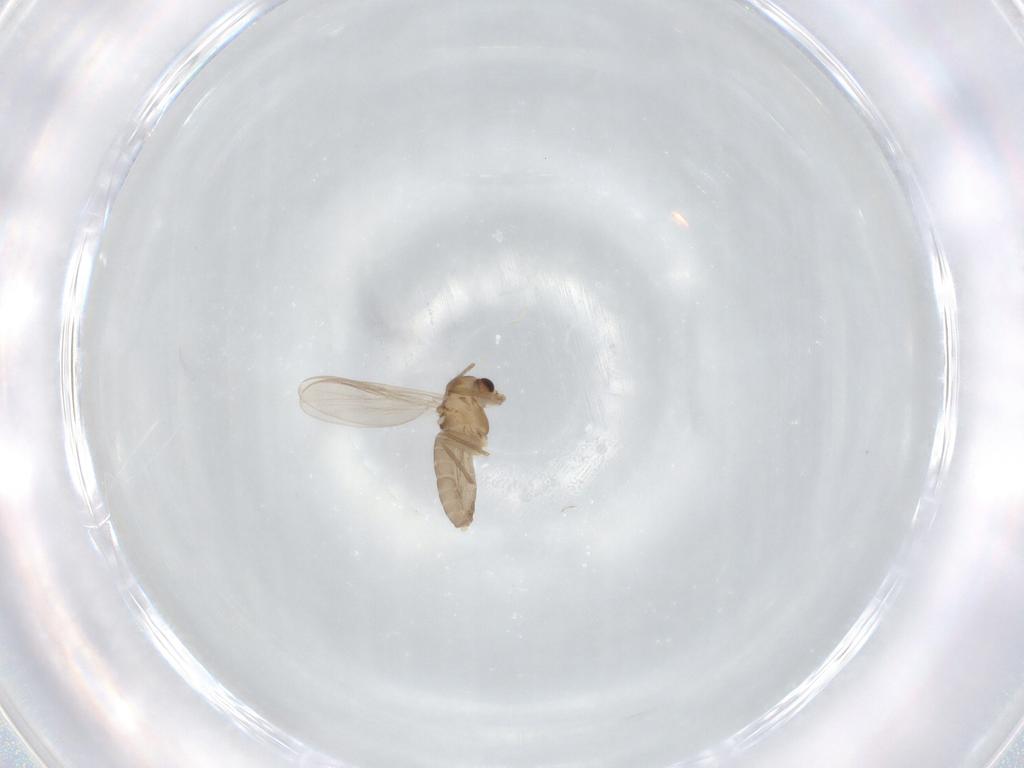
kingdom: Animalia
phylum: Arthropoda
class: Insecta
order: Diptera
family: Chironomidae
